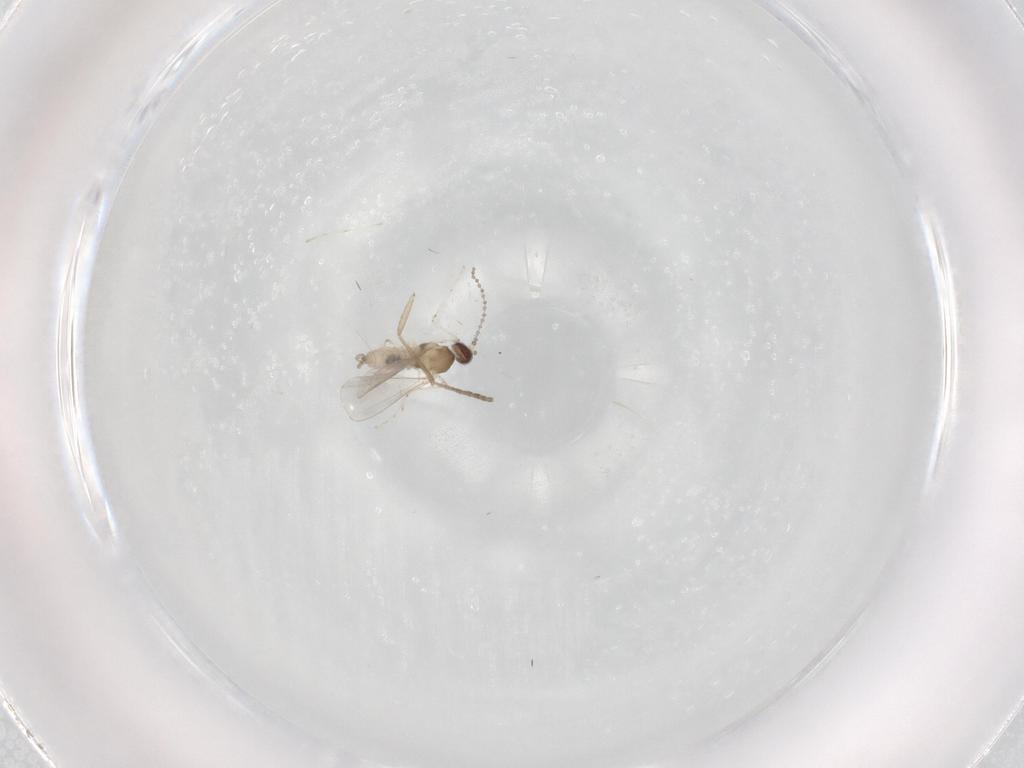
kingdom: Animalia
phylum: Arthropoda
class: Insecta
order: Diptera
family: Cecidomyiidae
